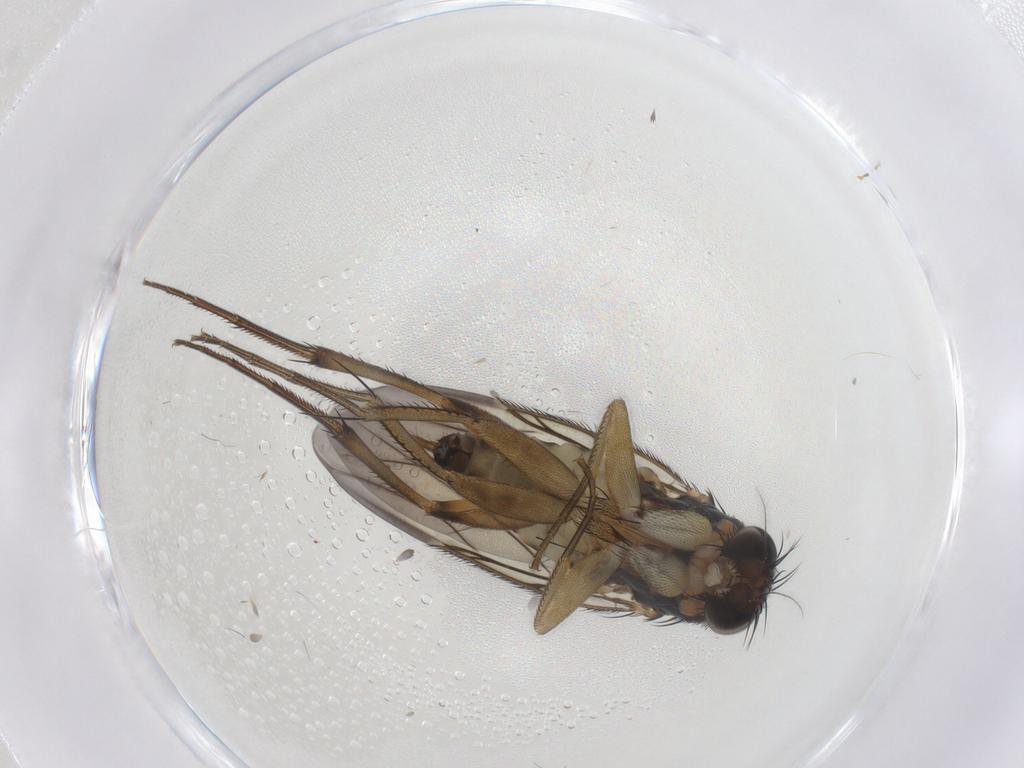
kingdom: Animalia
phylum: Arthropoda
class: Insecta
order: Diptera
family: Phoridae
